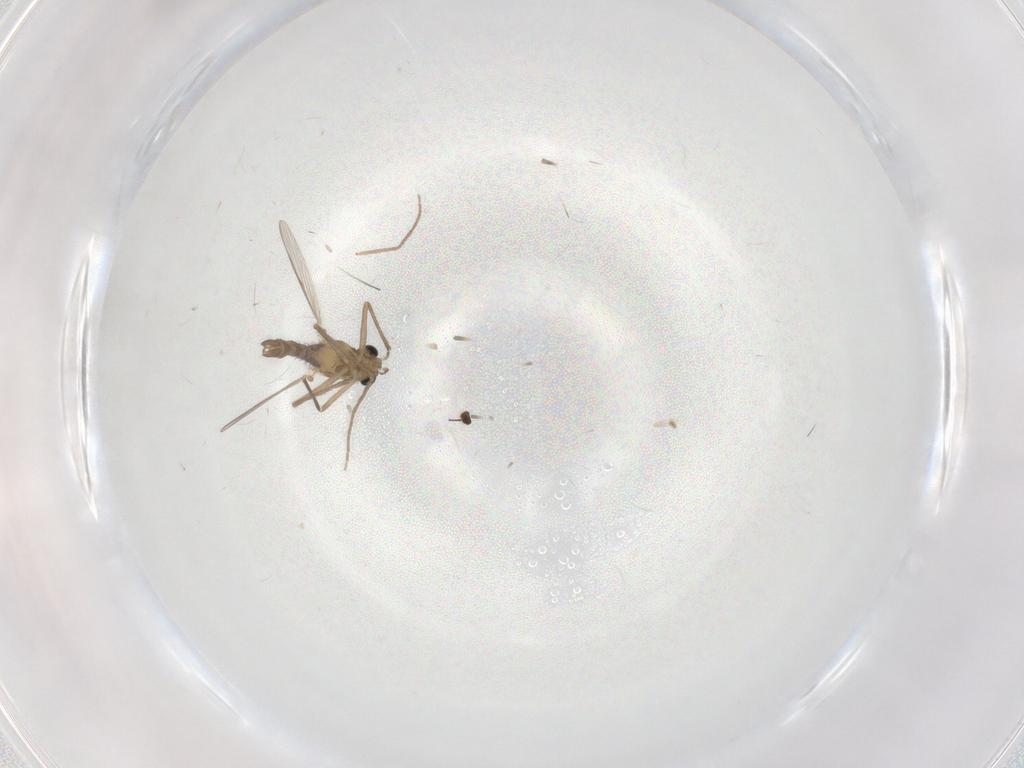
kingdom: Animalia
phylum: Arthropoda
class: Insecta
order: Diptera
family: Chironomidae
